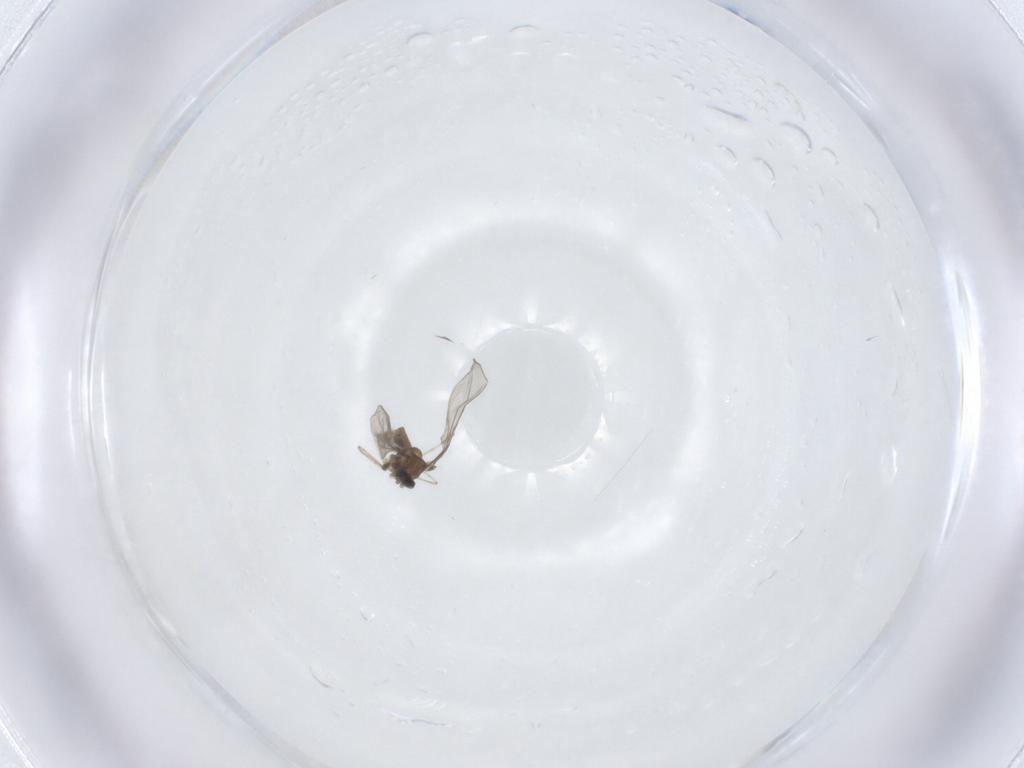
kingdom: Animalia
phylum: Arthropoda
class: Insecta
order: Diptera
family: Cecidomyiidae
